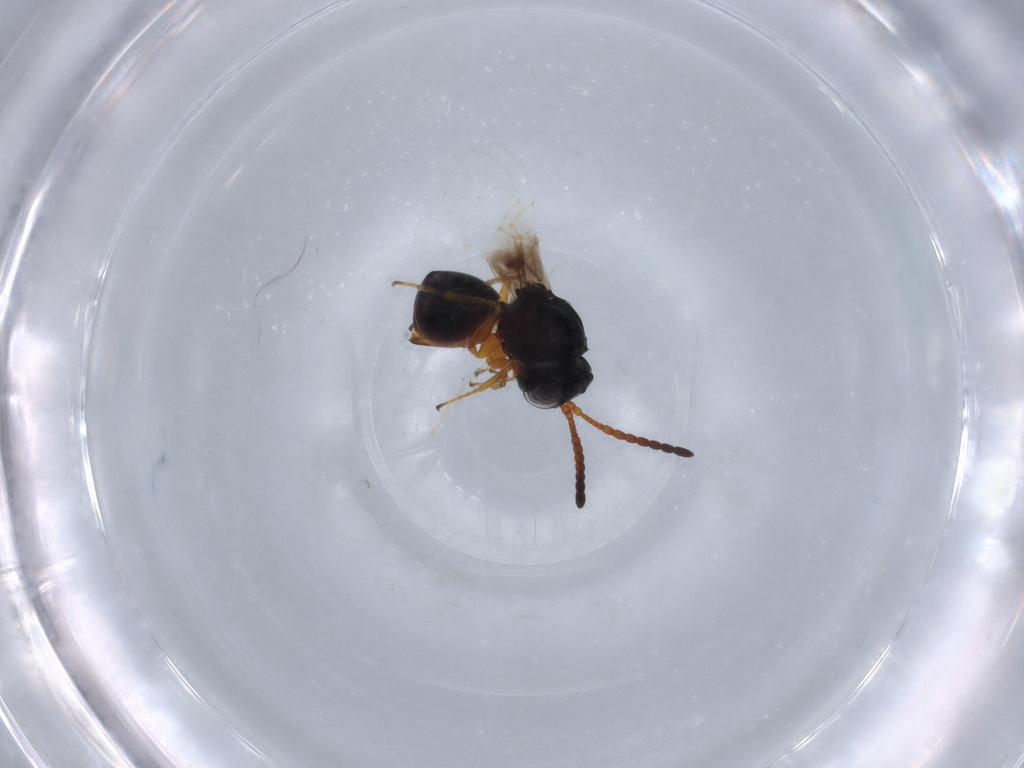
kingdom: Animalia
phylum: Arthropoda
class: Insecta
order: Hymenoptera
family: Figitidae
